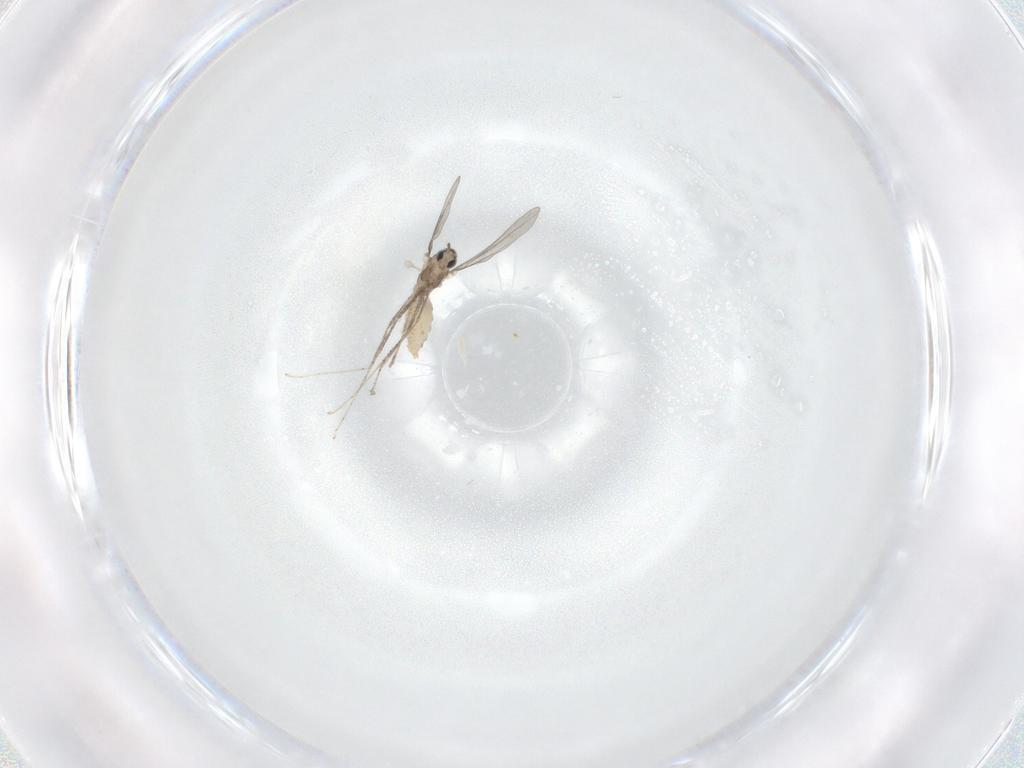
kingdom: Animalia
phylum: Arthropoda
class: Insecta
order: Diptera
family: Cecidomyiidae
